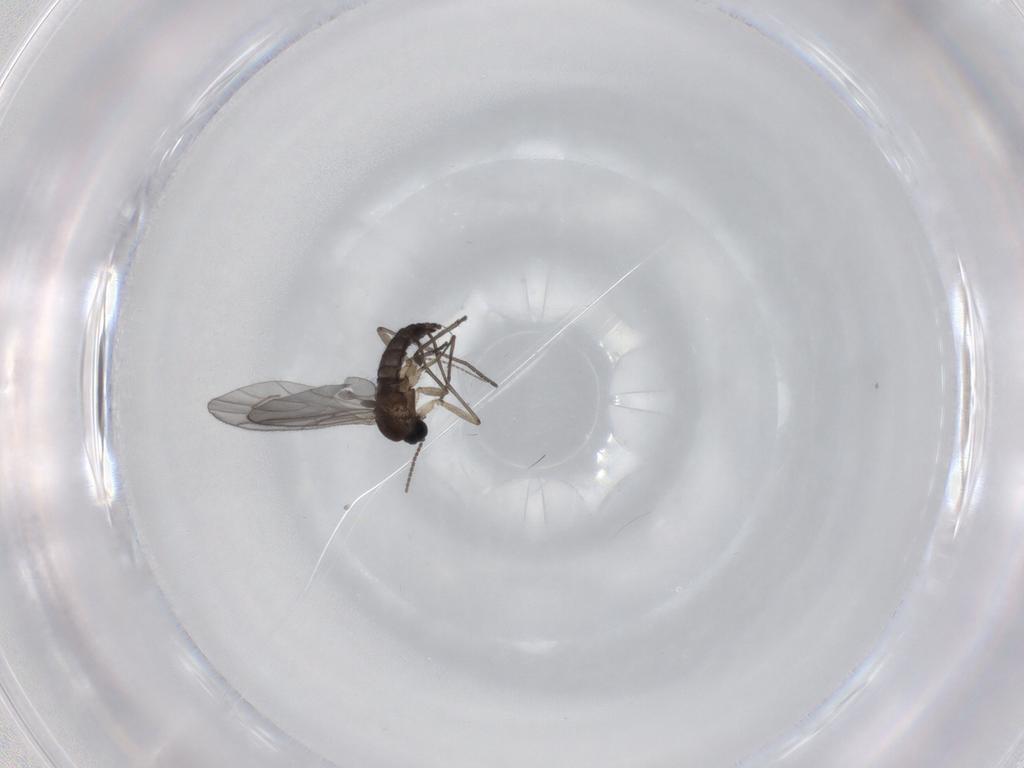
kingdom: Animalia
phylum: Arthropoda
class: Insecta
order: Diptera
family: Sciaridae
